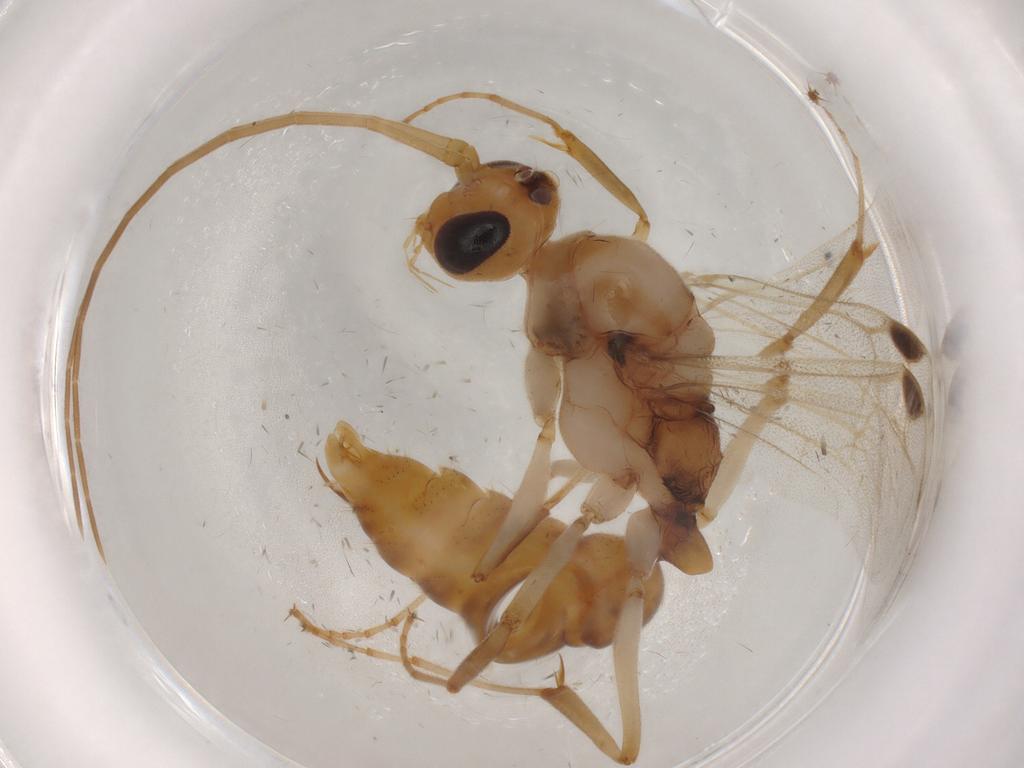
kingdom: Animalia
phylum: Arthropoda
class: Insecta
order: Hymenoptera
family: Formicidae
